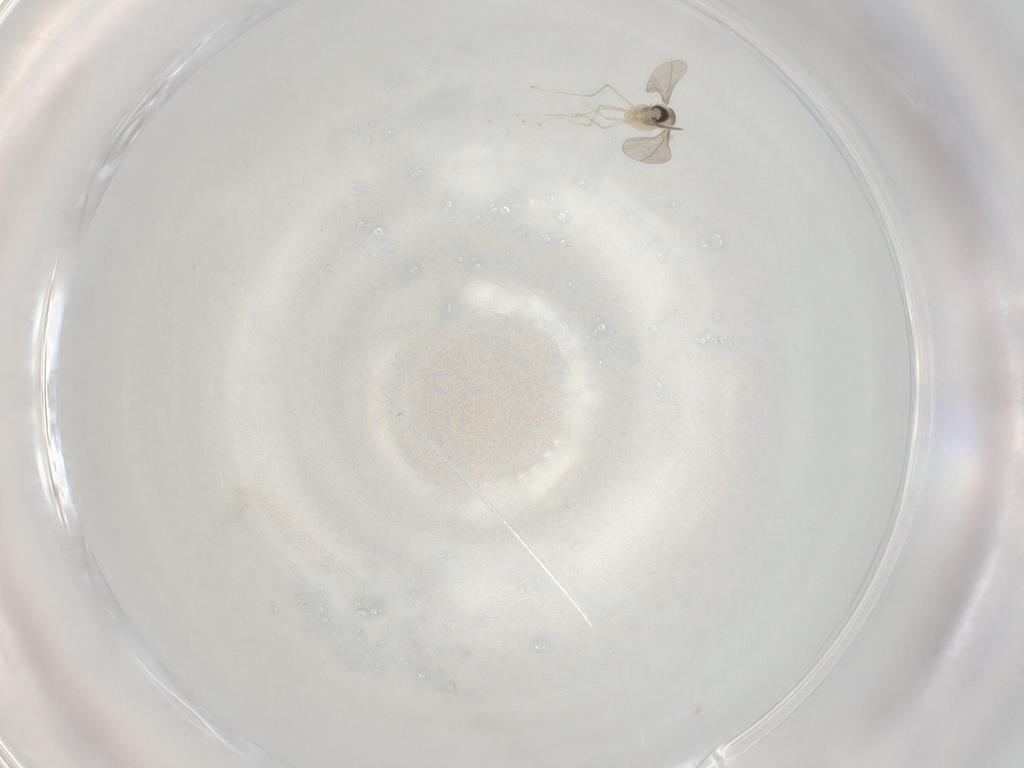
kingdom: Animalia
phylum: Arthropoda
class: Insecta
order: Diptera
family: Cecidomyiidae
